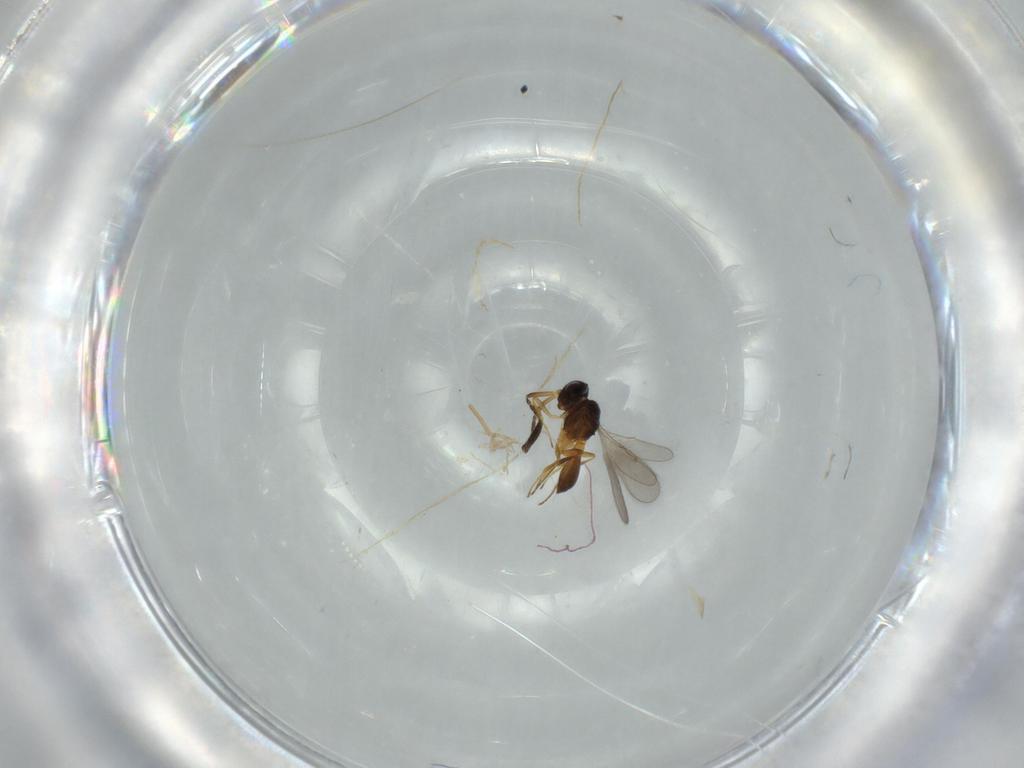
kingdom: Animalia
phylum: Arthropoda
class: Insecta
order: Hymenoptera
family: Scelionidae
